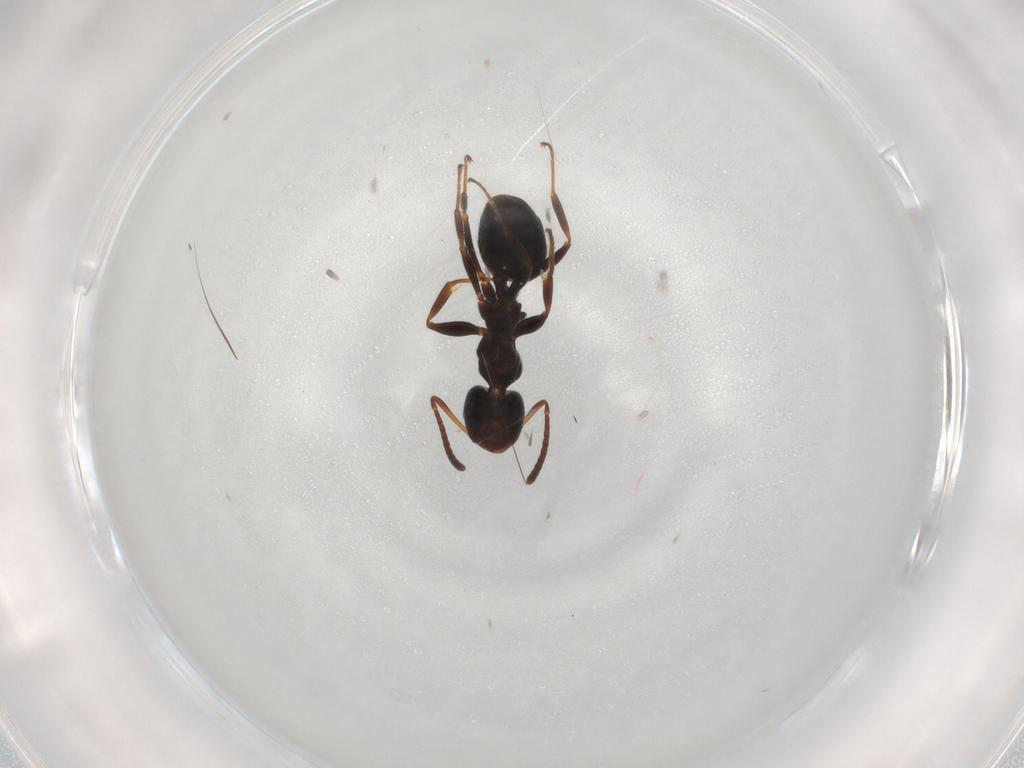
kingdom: Animalia
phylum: Arthropoda
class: Insecta
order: Hymenoptera
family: Formicidae
